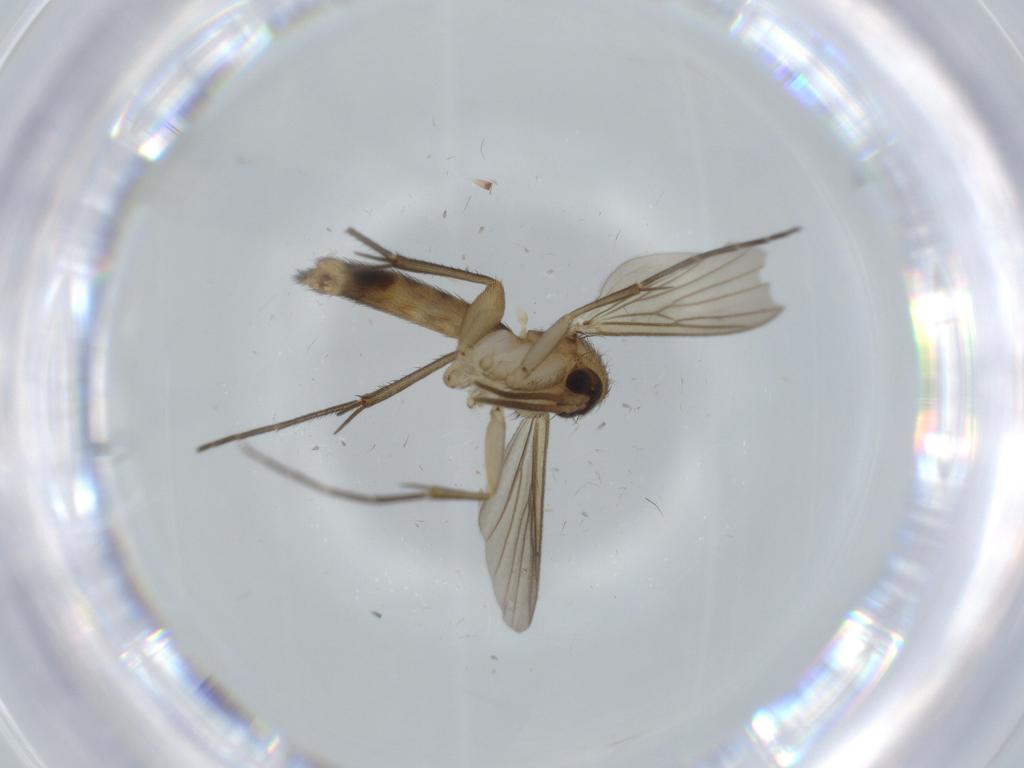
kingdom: Animalia
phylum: Arthropoda
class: Insecta
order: Diptera
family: Mycetophilidae
